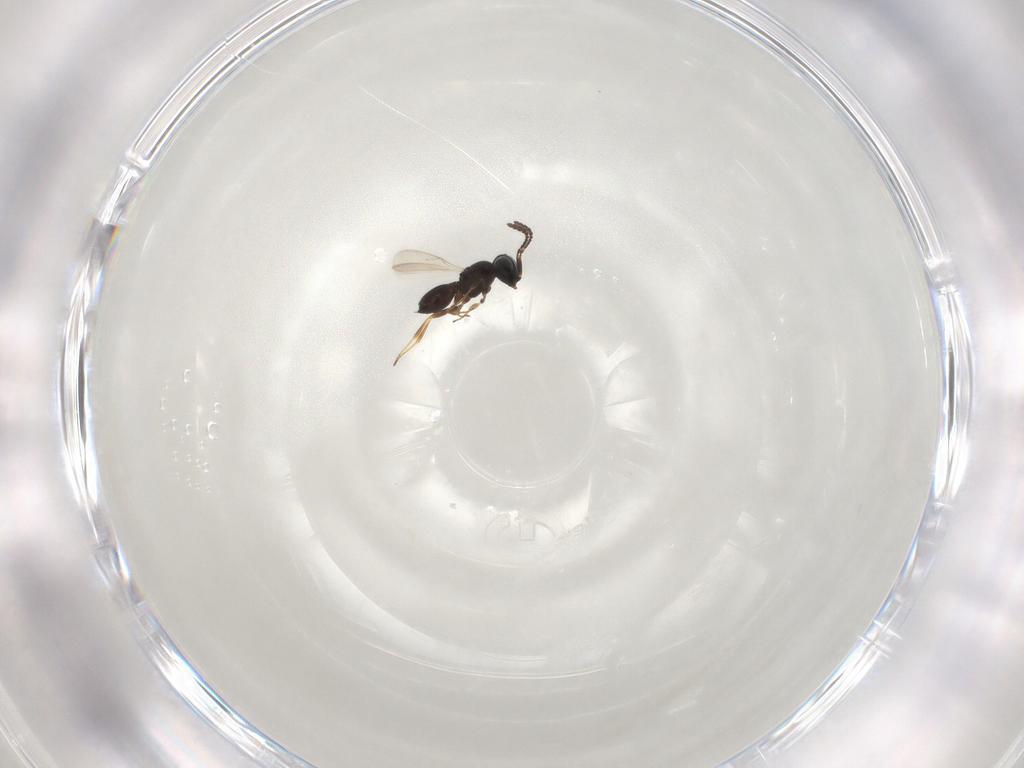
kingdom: Animalia
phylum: Arthropoda
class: Insecta
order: Hymenoptera
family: Scelionidae
